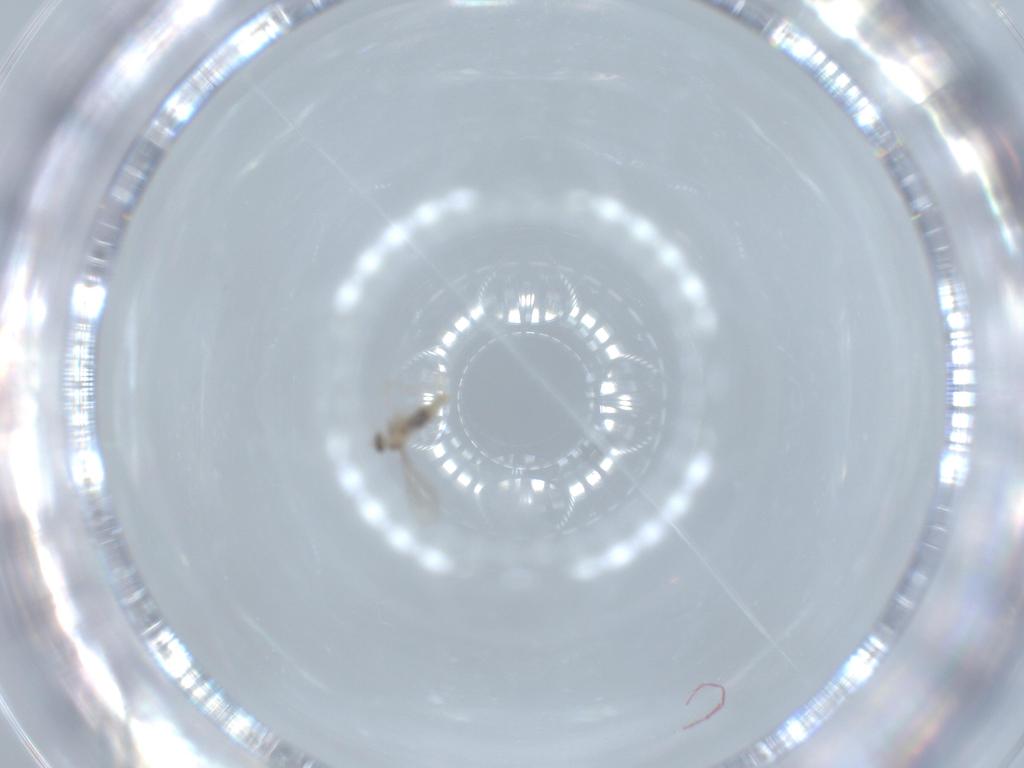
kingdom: Animalia
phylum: Arthropoda
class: Insecta
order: Diptera
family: Cecidomyiidae
